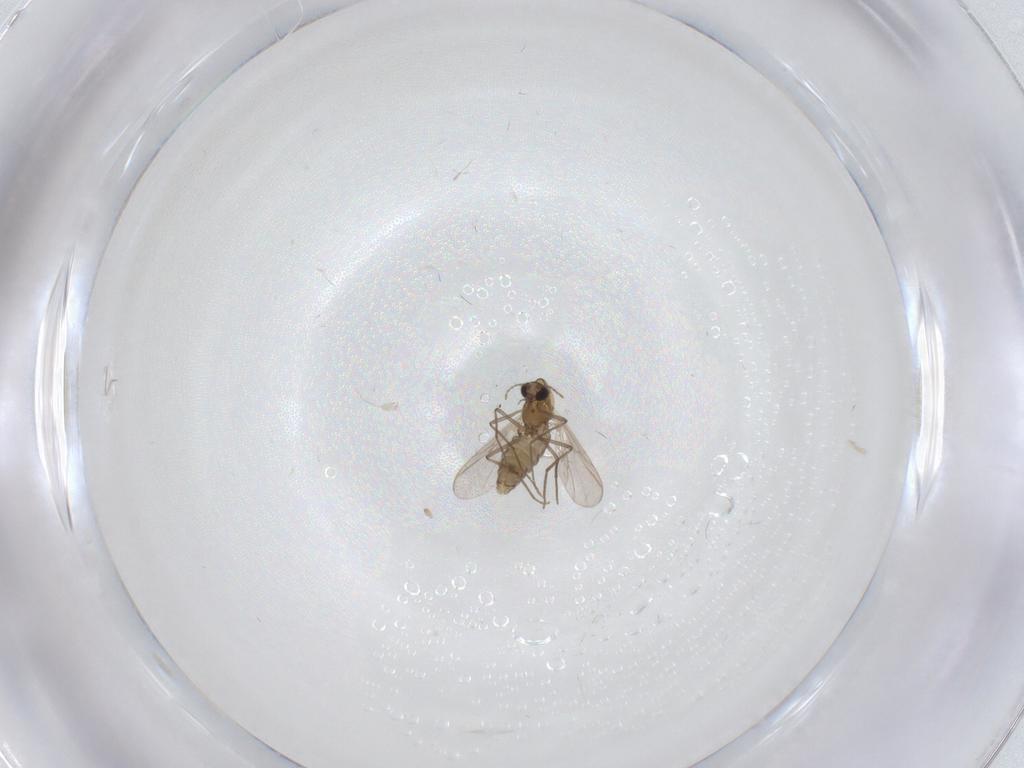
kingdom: Animalia
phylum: Arthropoda
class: Insecta
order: Diptera
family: Chironomidae
